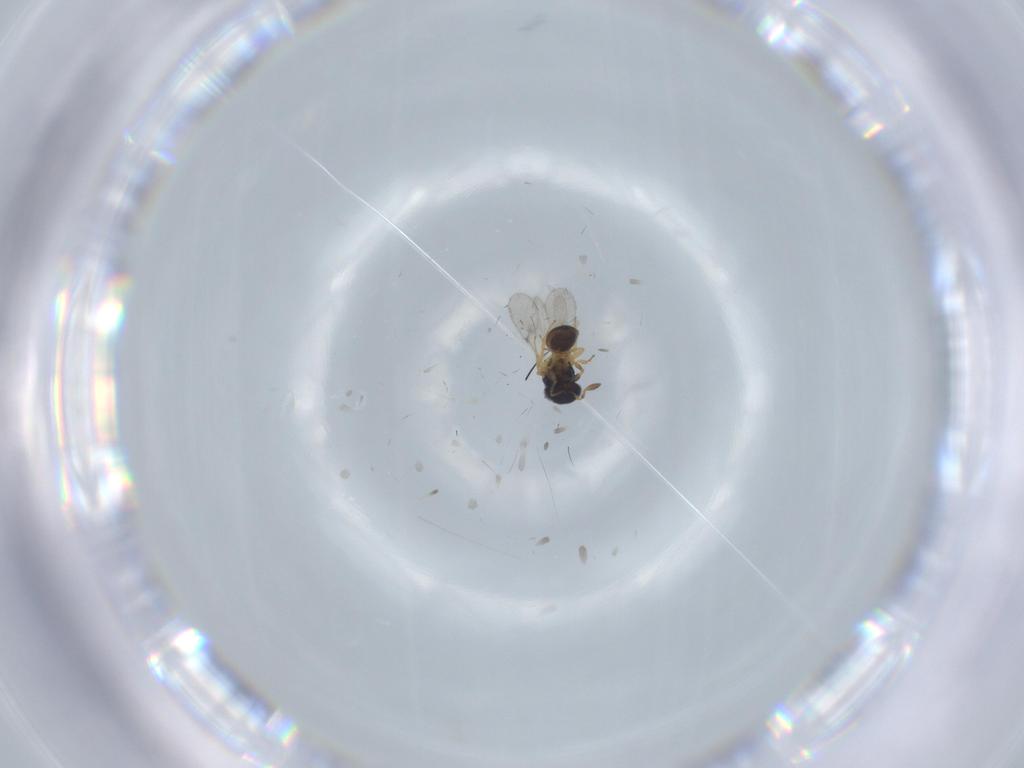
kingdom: Animalia
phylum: Arthropoda
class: Insecta
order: Hymenoptera
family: Scelionidae
